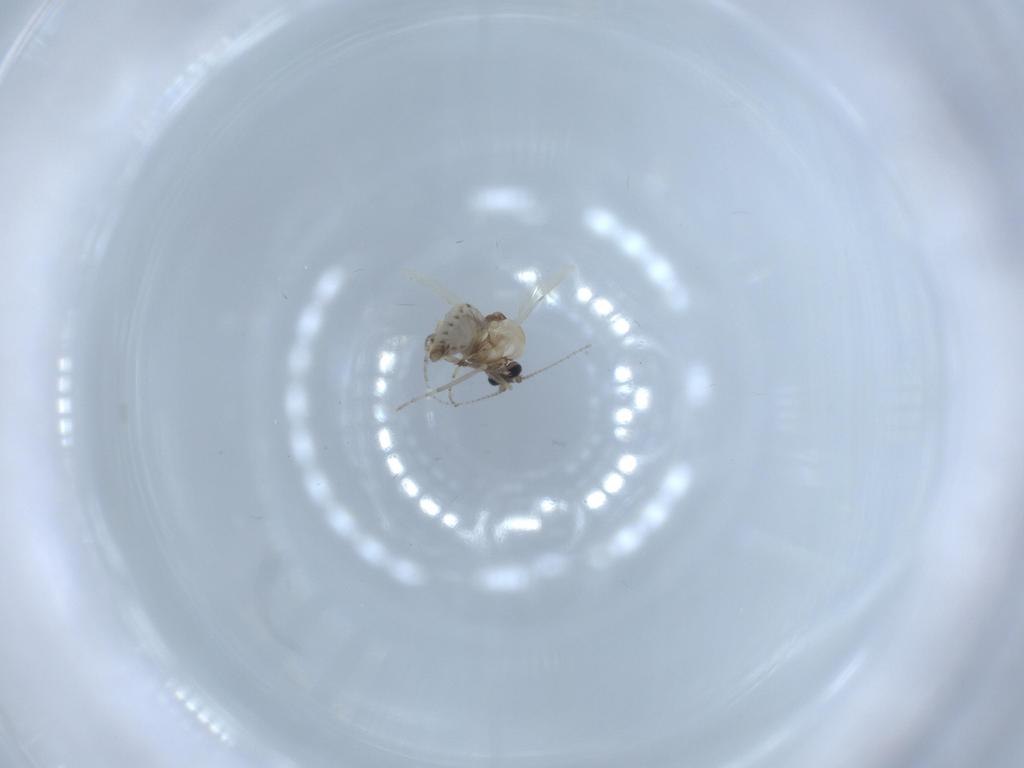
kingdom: Animalia
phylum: Arthropoda
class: Insecta
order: Diptera
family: Ceratopogonidae
